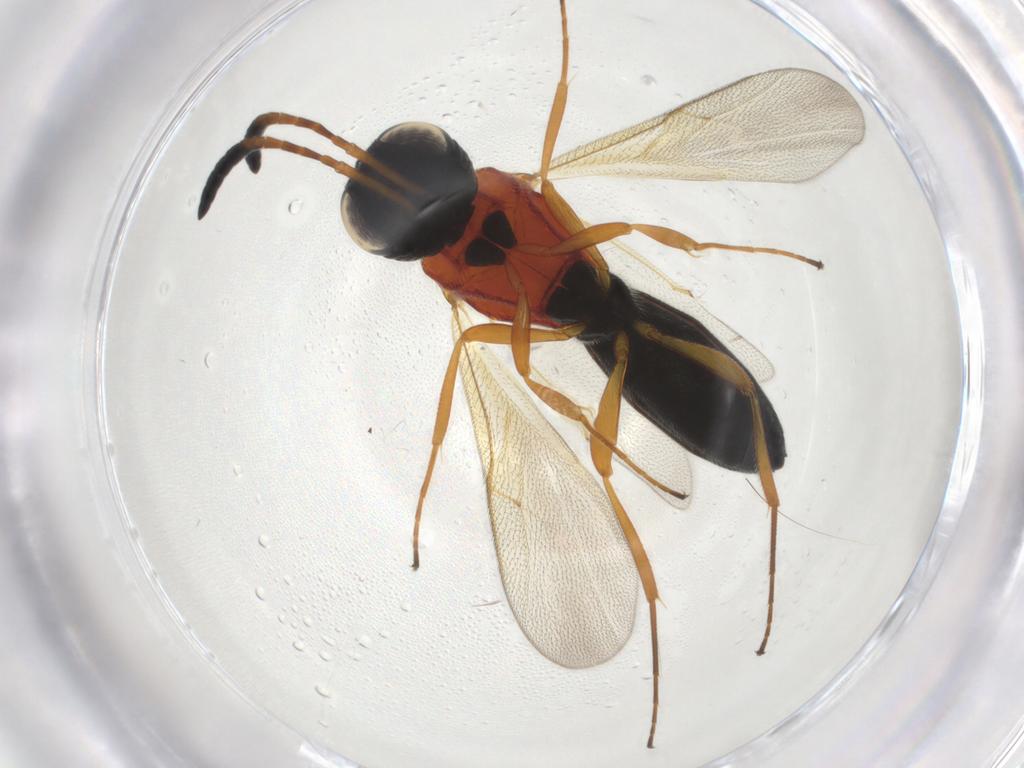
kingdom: Animalia
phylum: Arthropoda
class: Insecta
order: Hymenoptera
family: Scelionidae
